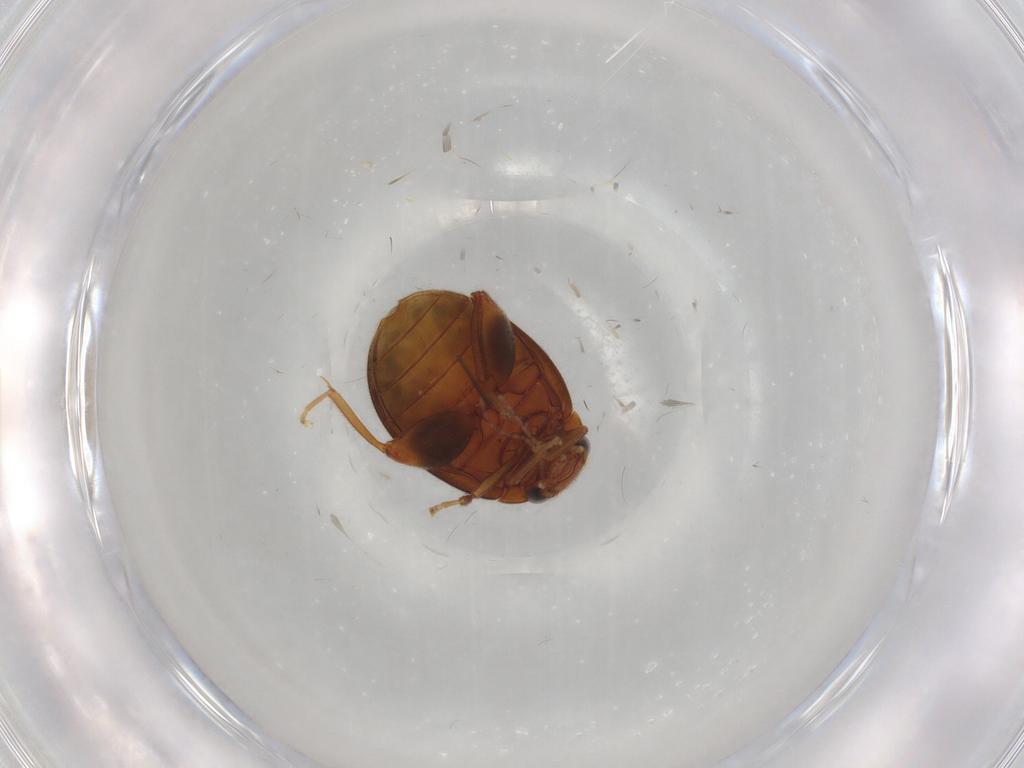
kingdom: Animalia
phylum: Arthropoda
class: Insecta
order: Coleoptera
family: Scirtidae
